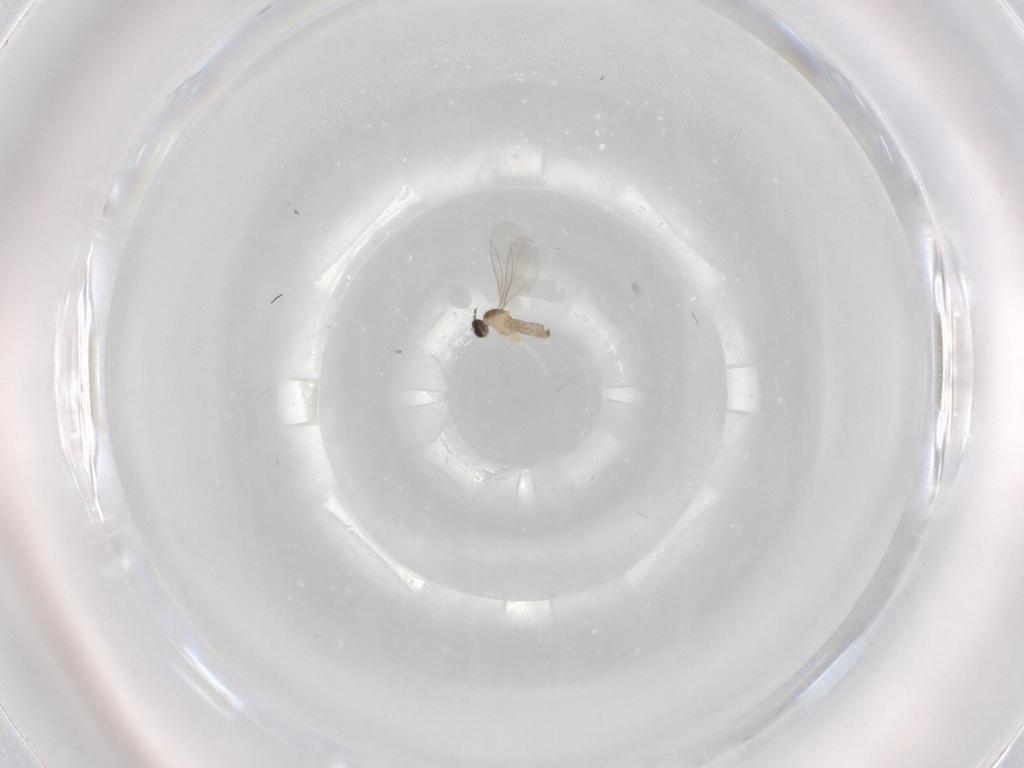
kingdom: Animalia
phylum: Arthropoda
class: Insecta
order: Diptera
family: Cecidomyiidae
